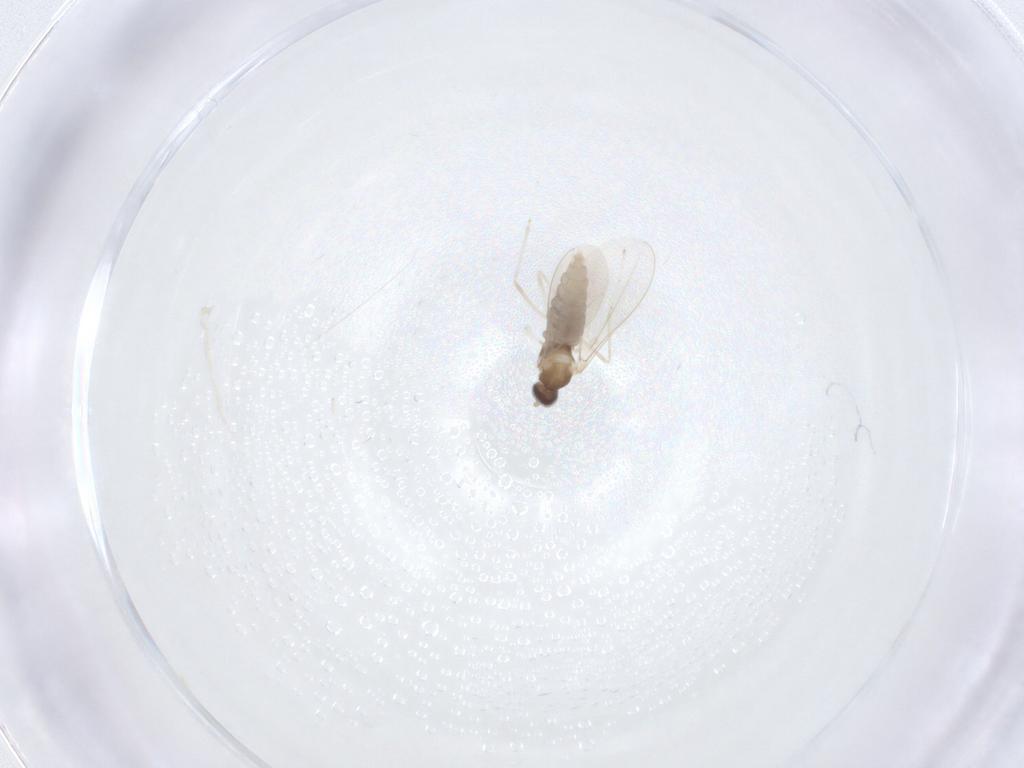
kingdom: Animalia
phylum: Arthropoda
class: Insecta
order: Diptera
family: Cecidomyiidae
